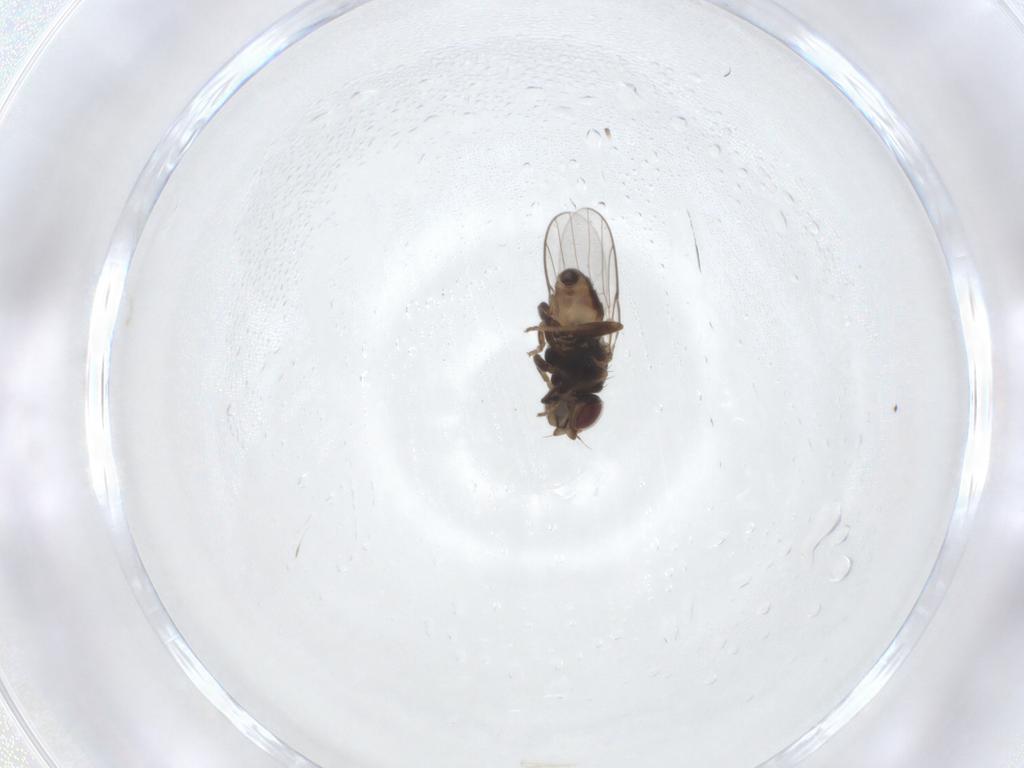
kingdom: Animalia
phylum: Arthropoda
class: Insecta
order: Diptera
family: Chloropidae
